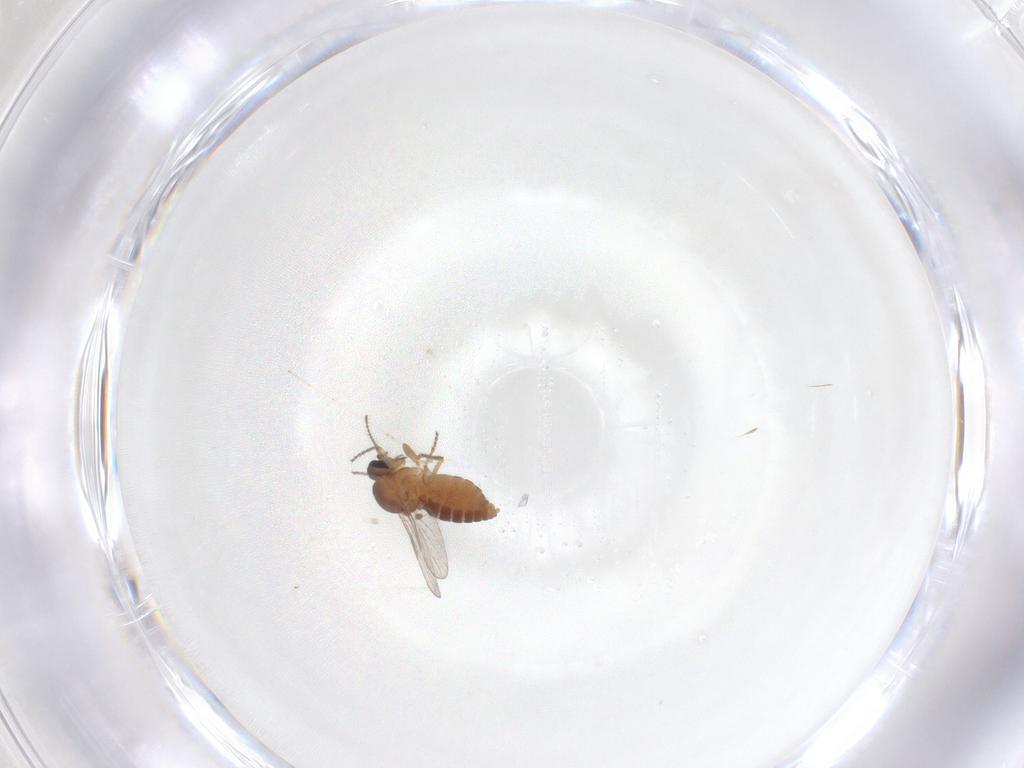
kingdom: Animalia
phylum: Arthropoda
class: Insecta
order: Diptera
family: Ceratopogonidae
